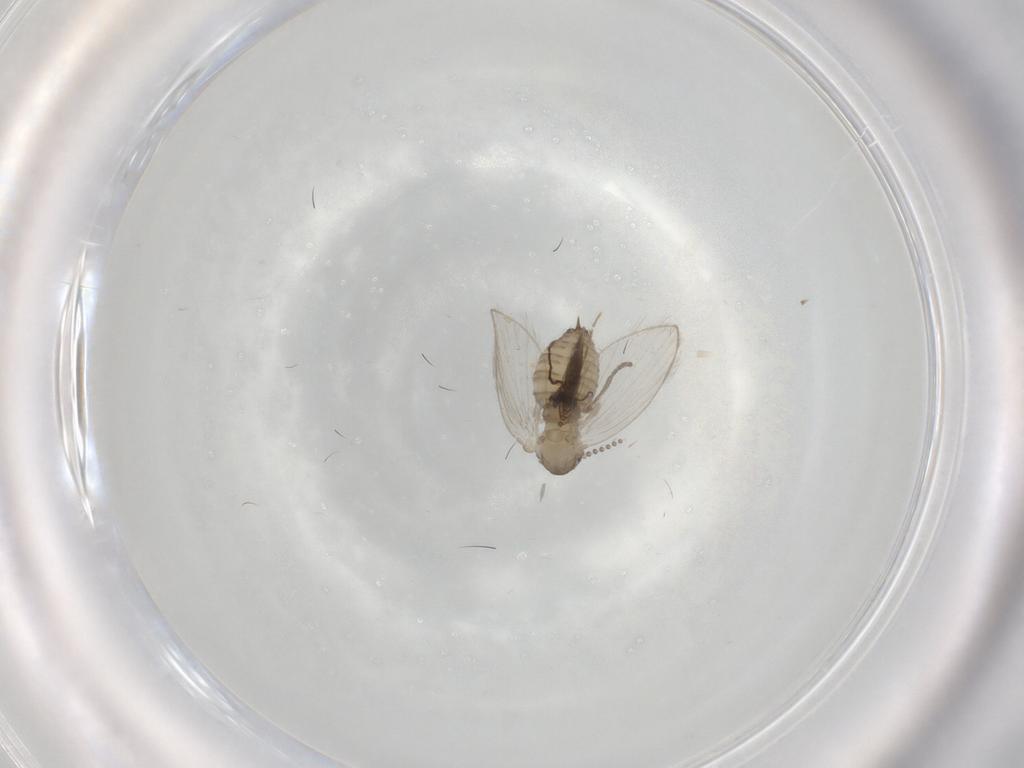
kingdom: Animalia
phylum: Arthropoda
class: Insecta
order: Diptera
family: Psychodidae
